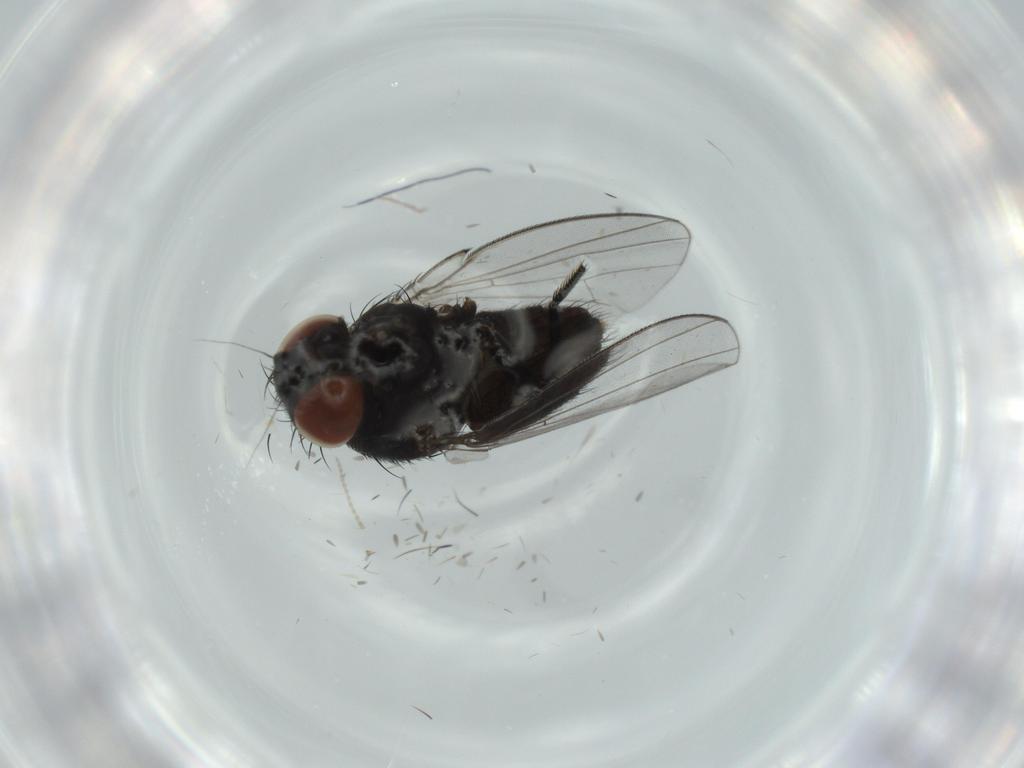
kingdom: Animalia
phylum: Arthropoda
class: Insecta
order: Diptera
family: Milichiidae
